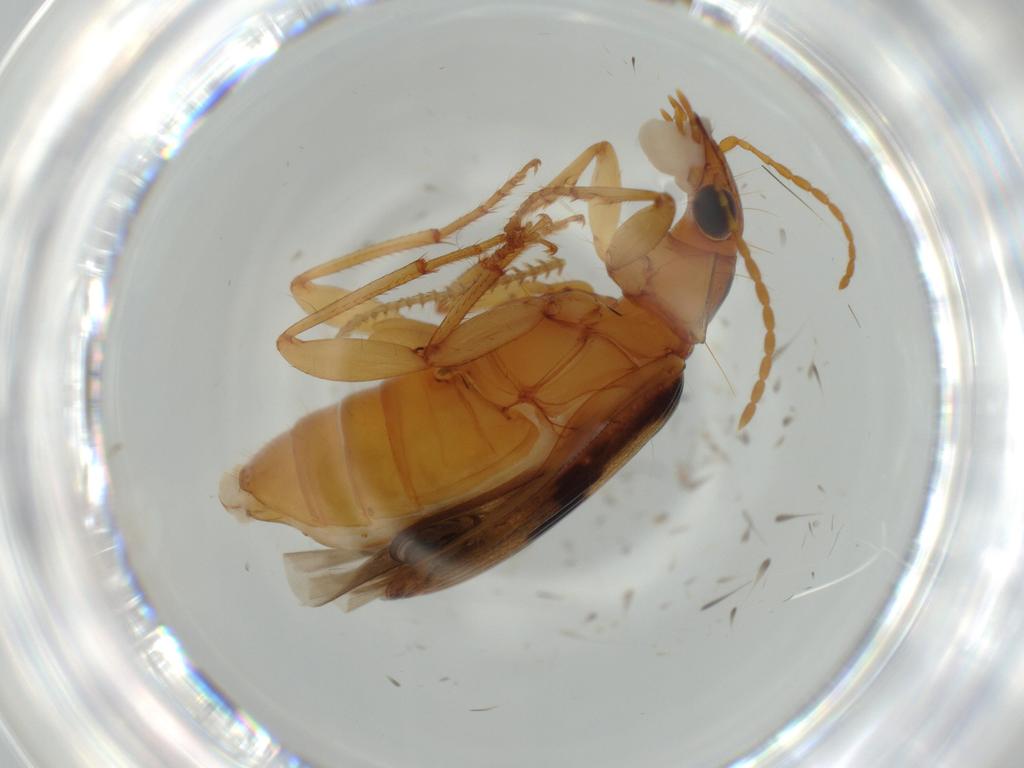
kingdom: Animalia
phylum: Arthropoda
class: Insecta
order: Coleoptera
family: Carabidae
